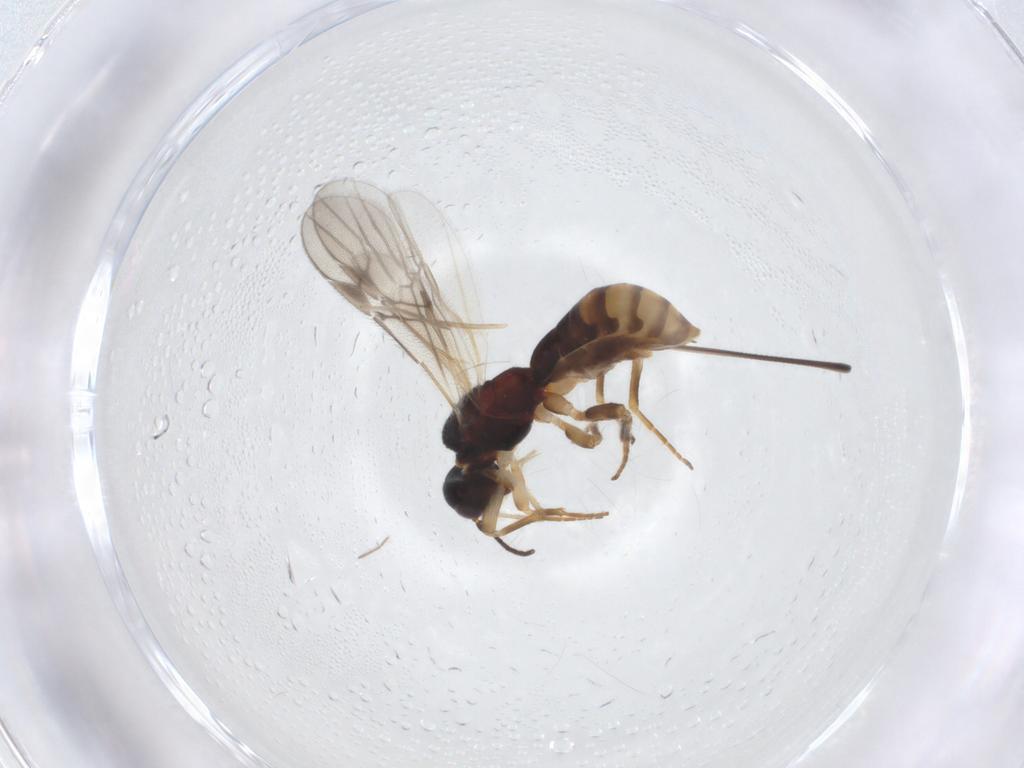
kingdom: Animalia
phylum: Arthropoda
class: Insecta
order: Hymenoptera
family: Braconidae
